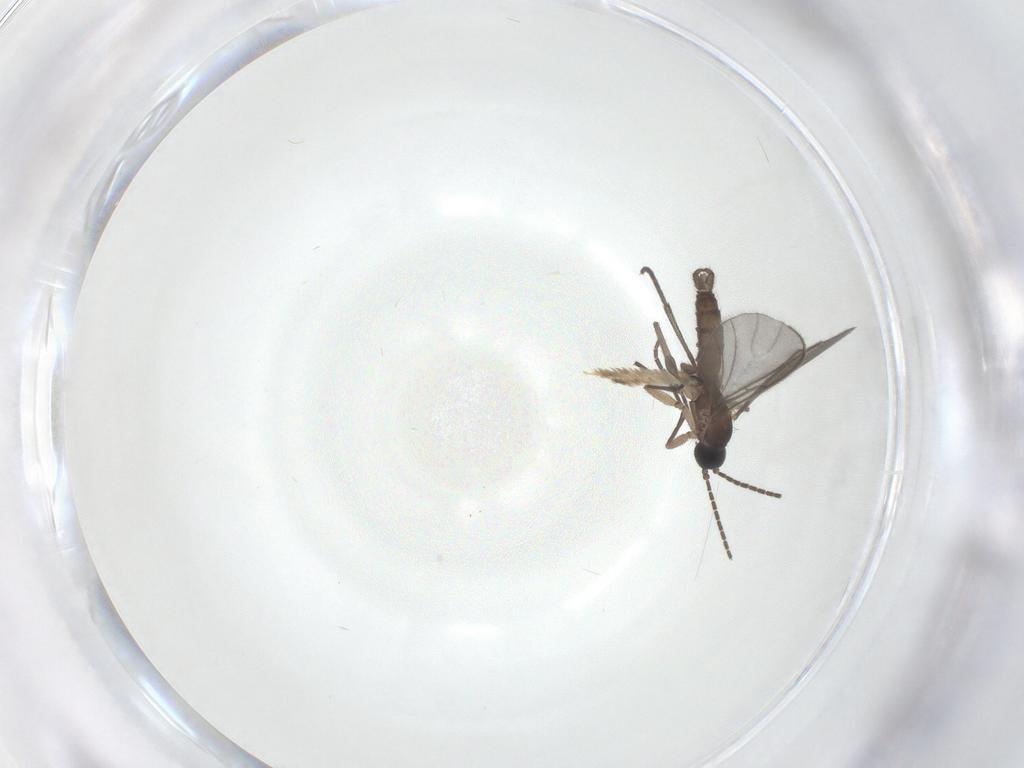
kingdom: Animalia
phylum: Arthropoda
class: Insecta
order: Diptera
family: Sciaridae
